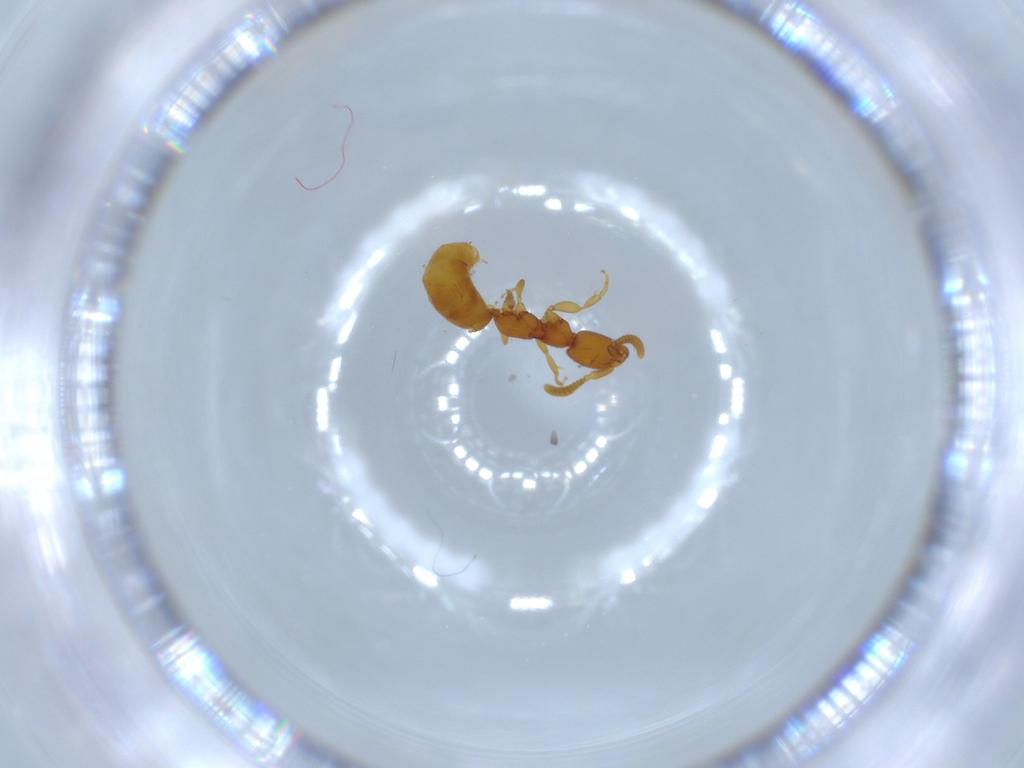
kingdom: Animalia
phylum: Arthropoda
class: Insecta
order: Hymenoptera
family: Bethylidae
